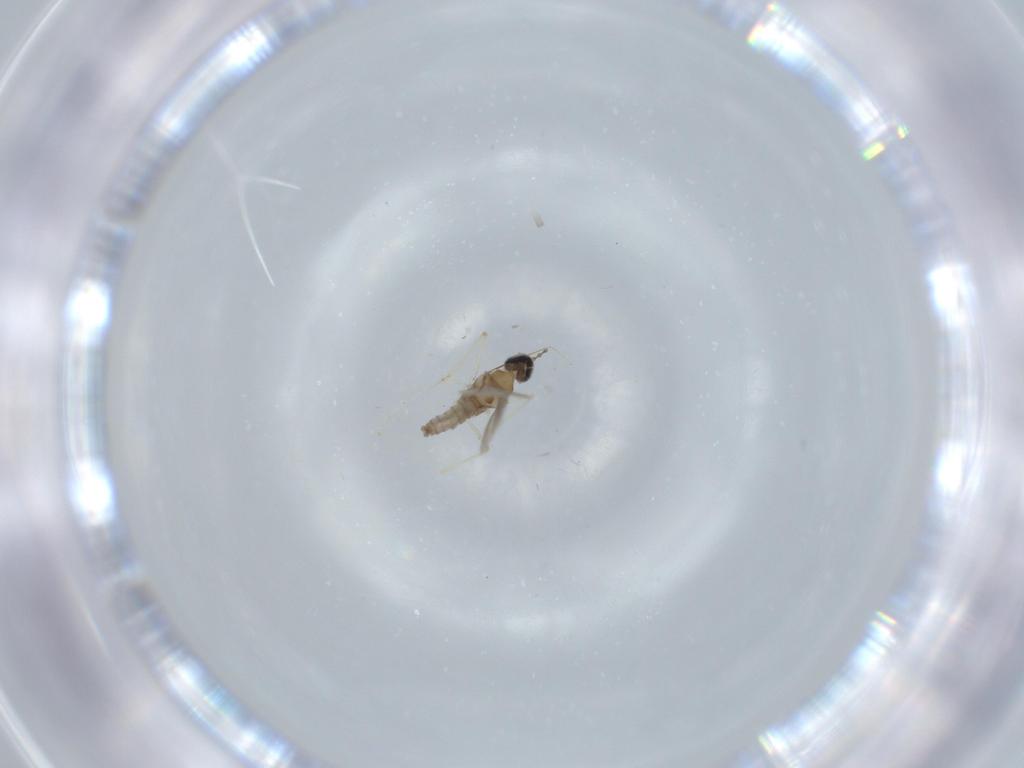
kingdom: Animalia
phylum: Arthropoda
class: Insecta
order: Diptera
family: Cecidomyiidae
